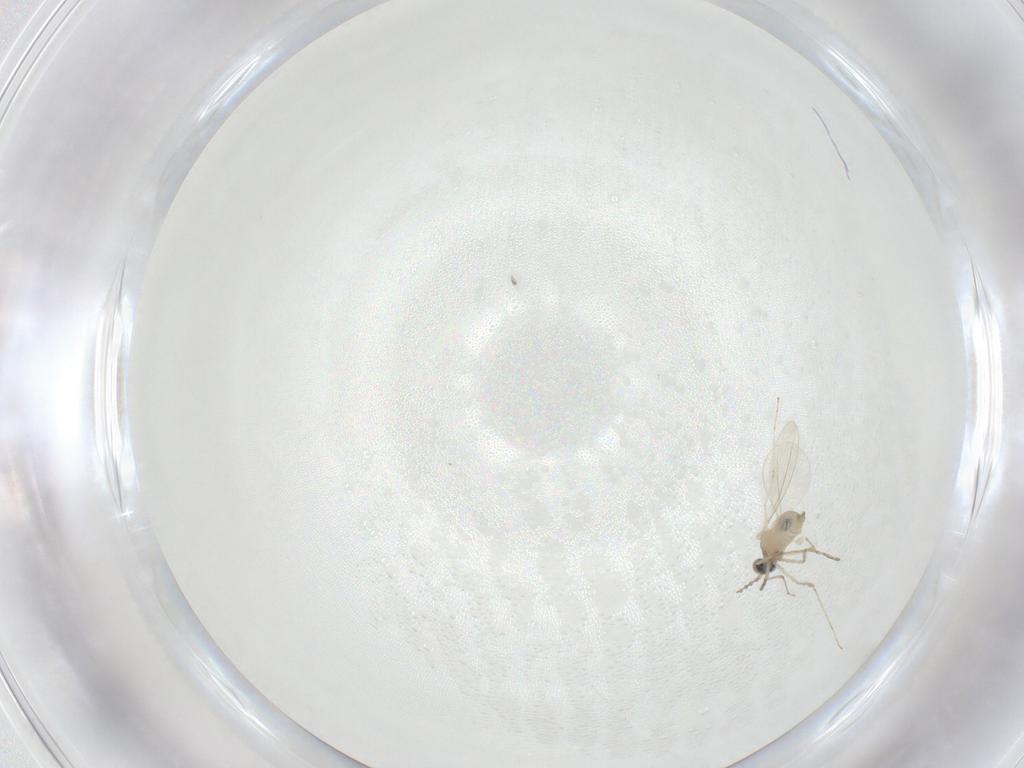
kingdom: Animalia
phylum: Arthropoda
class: Insecta
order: Diptera
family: Cecidomyiidae
